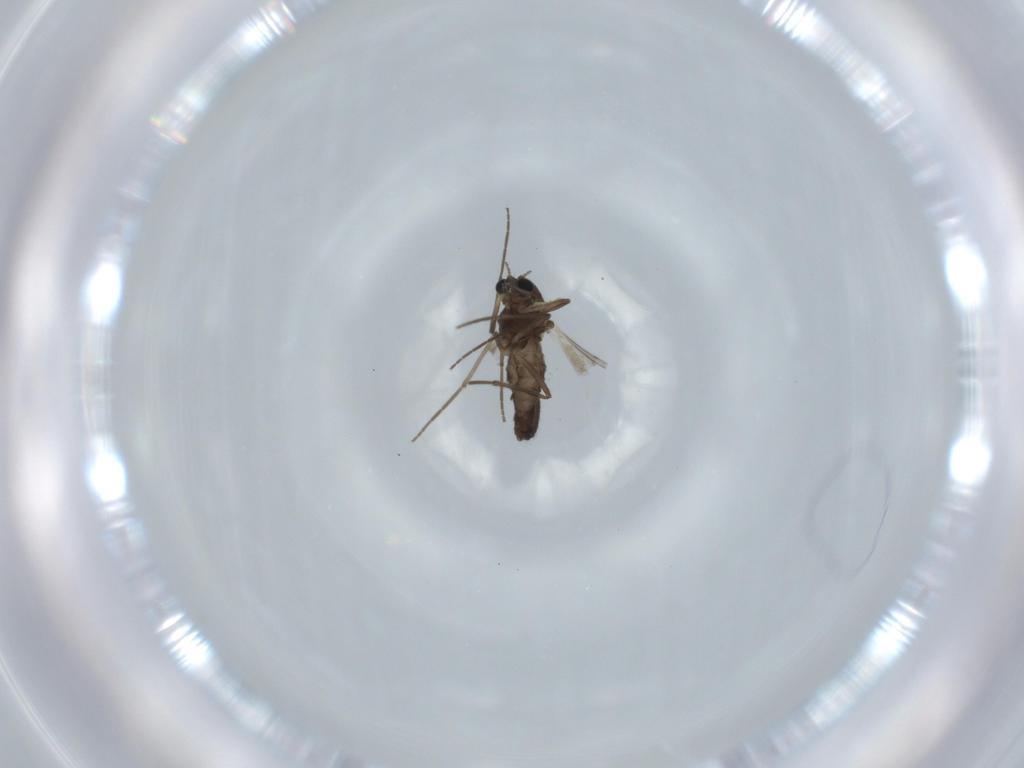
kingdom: Animalia
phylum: Arthropoda
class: Insecta
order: Diptera
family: Chironomidae
